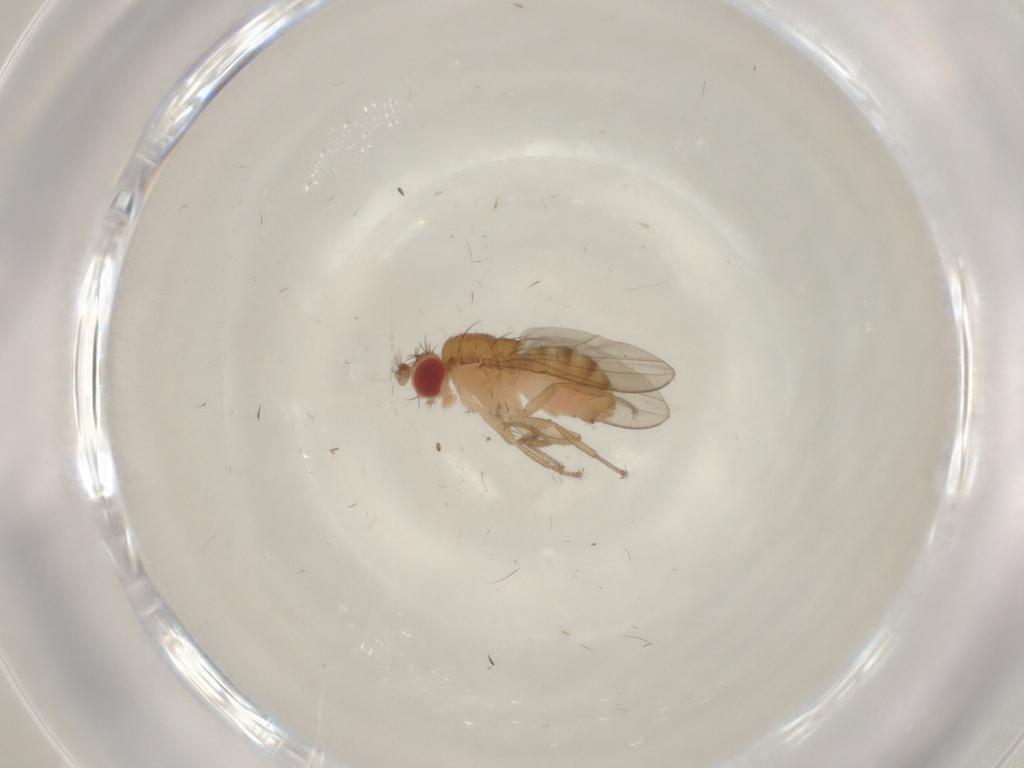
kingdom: Animalia
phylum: Arthropoda
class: Insecta
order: Diptera
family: Drosophilidae
